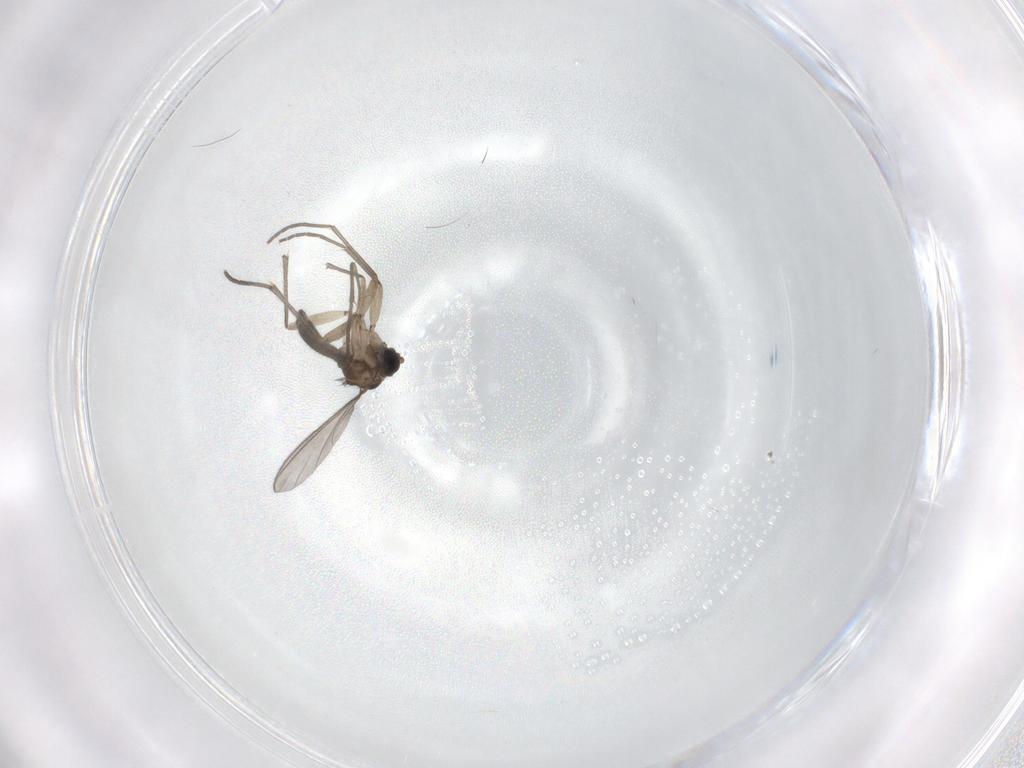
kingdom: Animalia
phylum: Arthropoda
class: Insecta
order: Diptera
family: Sciaridae
